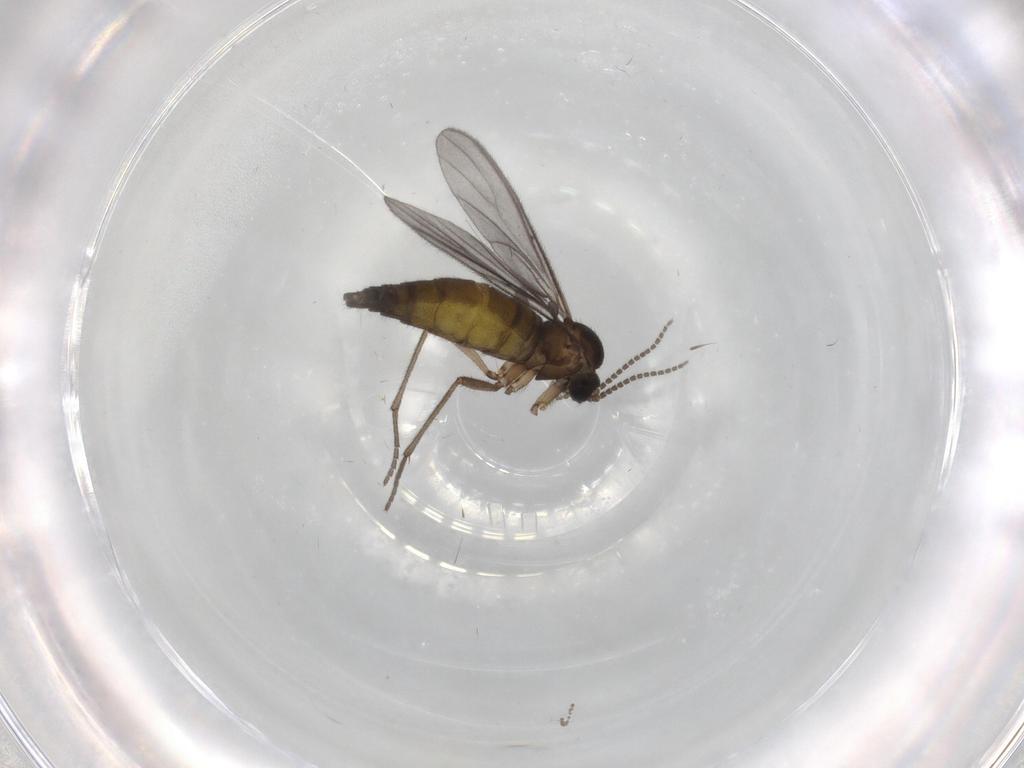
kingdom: Animalia
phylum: Arthropoda
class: Insecta
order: Diptera
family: Sciaridae
